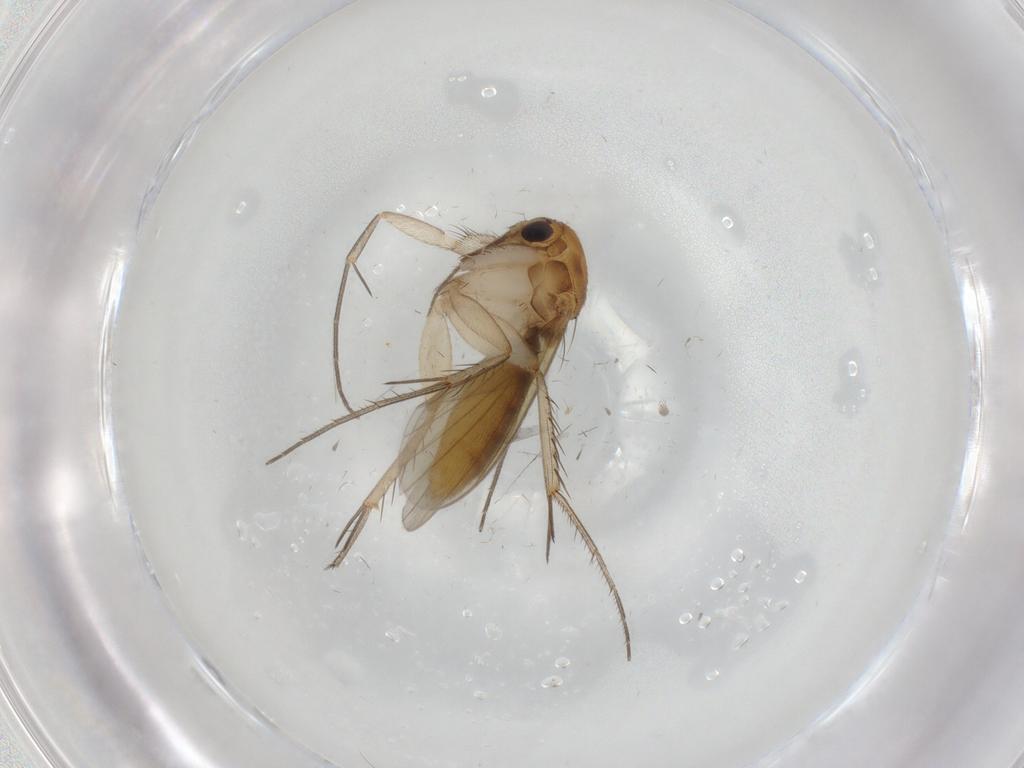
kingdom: Animalia
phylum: Arthropoda
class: Insecta
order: Diptera
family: Mycetophilidae
